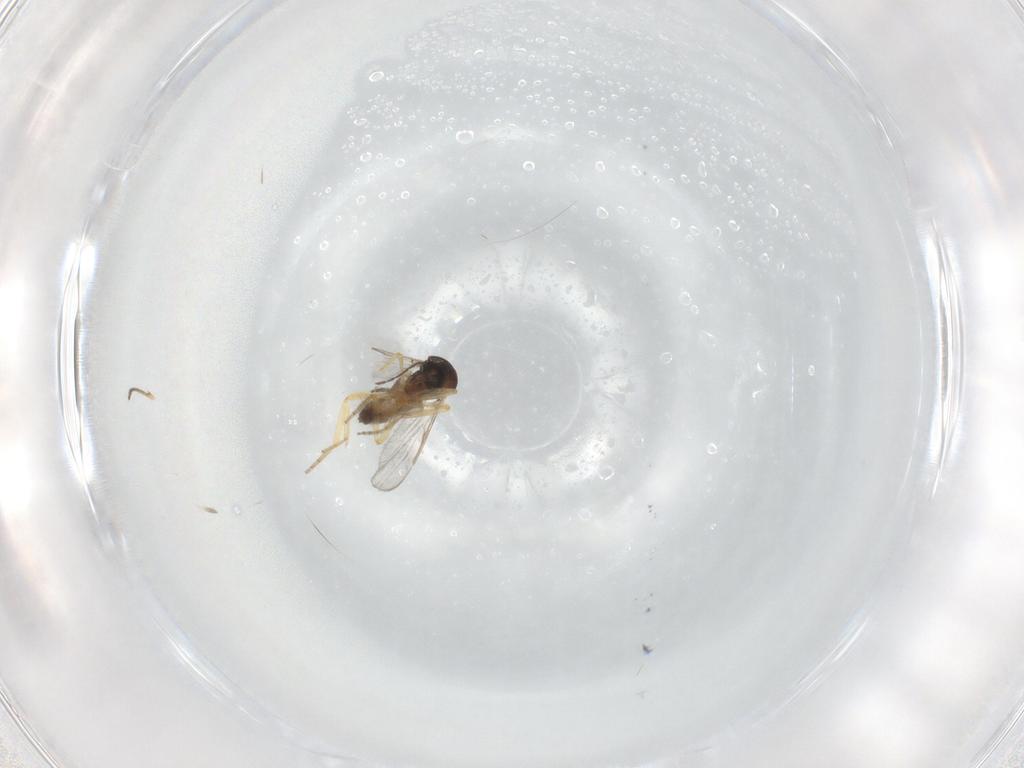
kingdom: Animalia
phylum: Arthropoda
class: Insecta
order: Diptera
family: Ceratopogonidae
